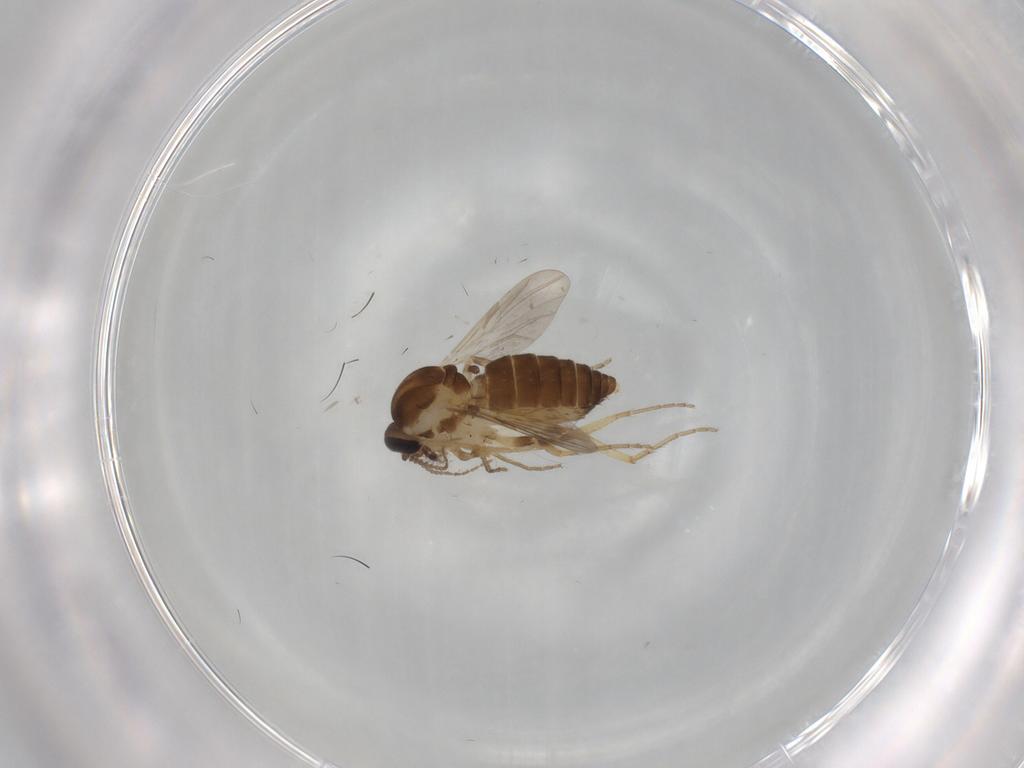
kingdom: Animalia
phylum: Arthropoda
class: Insecta
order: Diptera
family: Ceratopogonidae
